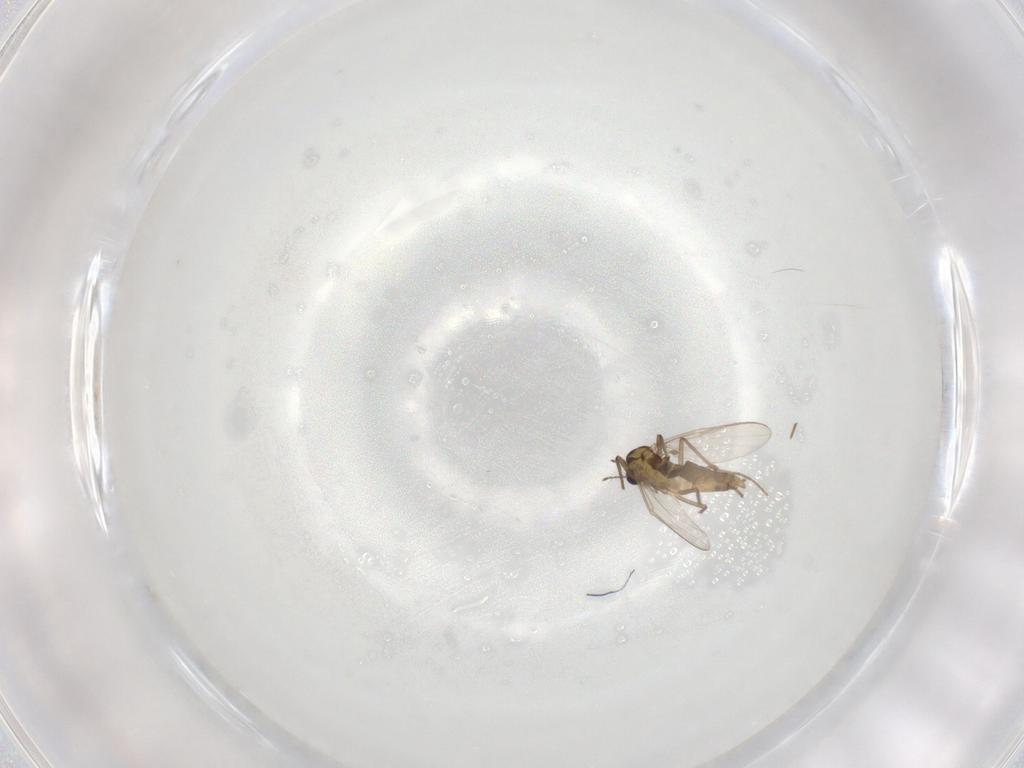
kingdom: Animalia
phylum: Arthropoda
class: Insecta
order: Diptera
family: Chironomidae
